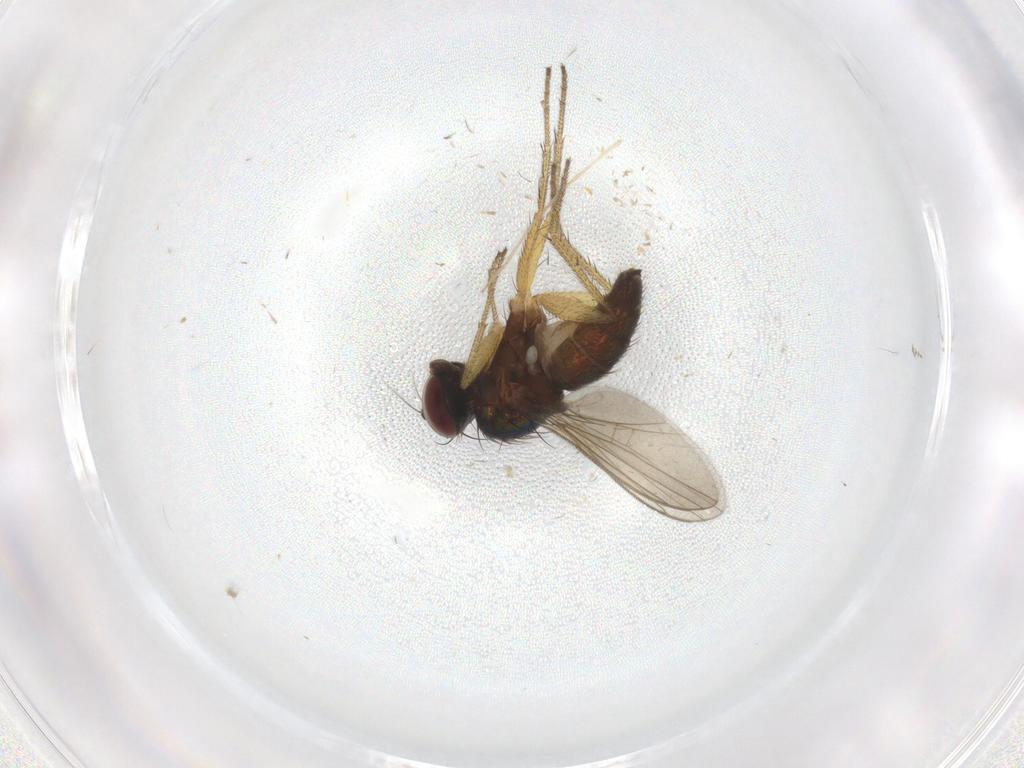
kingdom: Animalia
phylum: Arthropoda
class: Insecta
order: Diptera
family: Chironomidae
